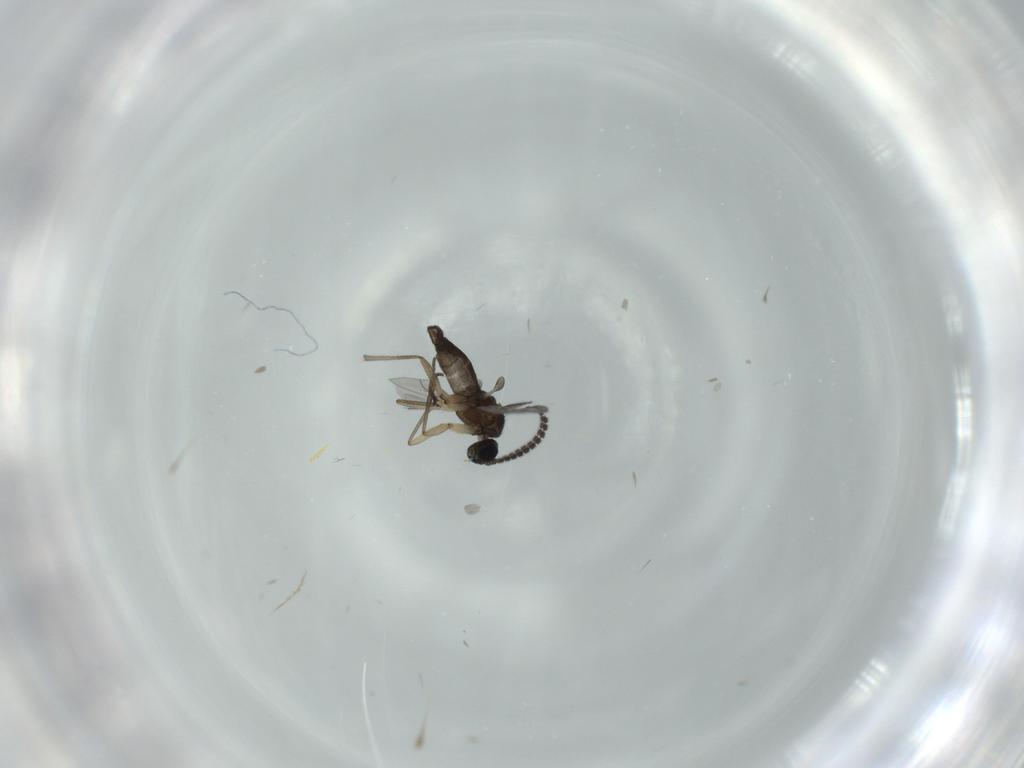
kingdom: Animalia
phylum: Arthropoda
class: Insecta
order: Diptera
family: Sciaridae
